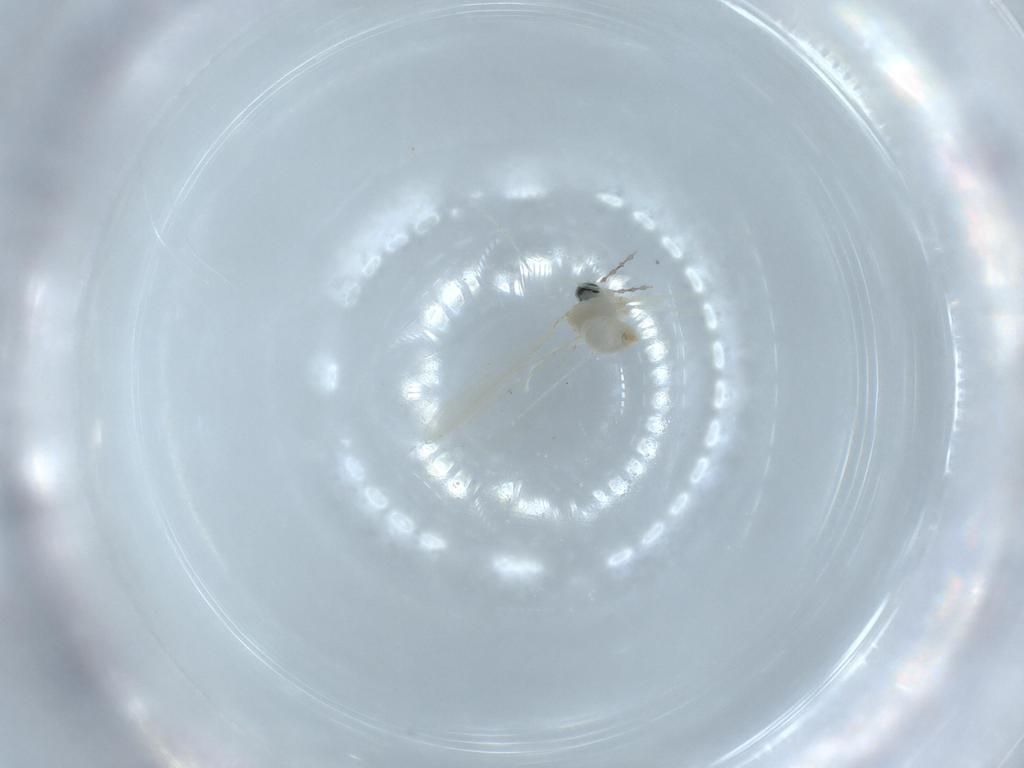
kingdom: Animalia
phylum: Arthropoda
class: Insecta
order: Diptera
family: Cecidomyiidae
